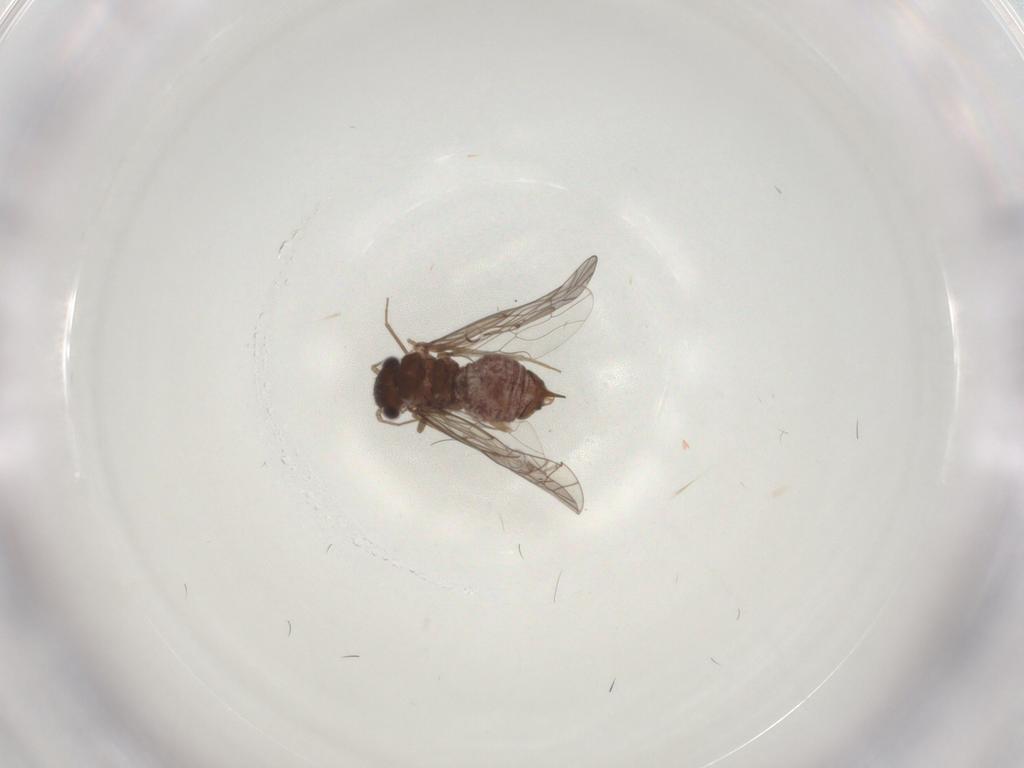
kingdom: Animalia
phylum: Arthropoda
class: Insecta
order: Psocodea
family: Lachesillidae
